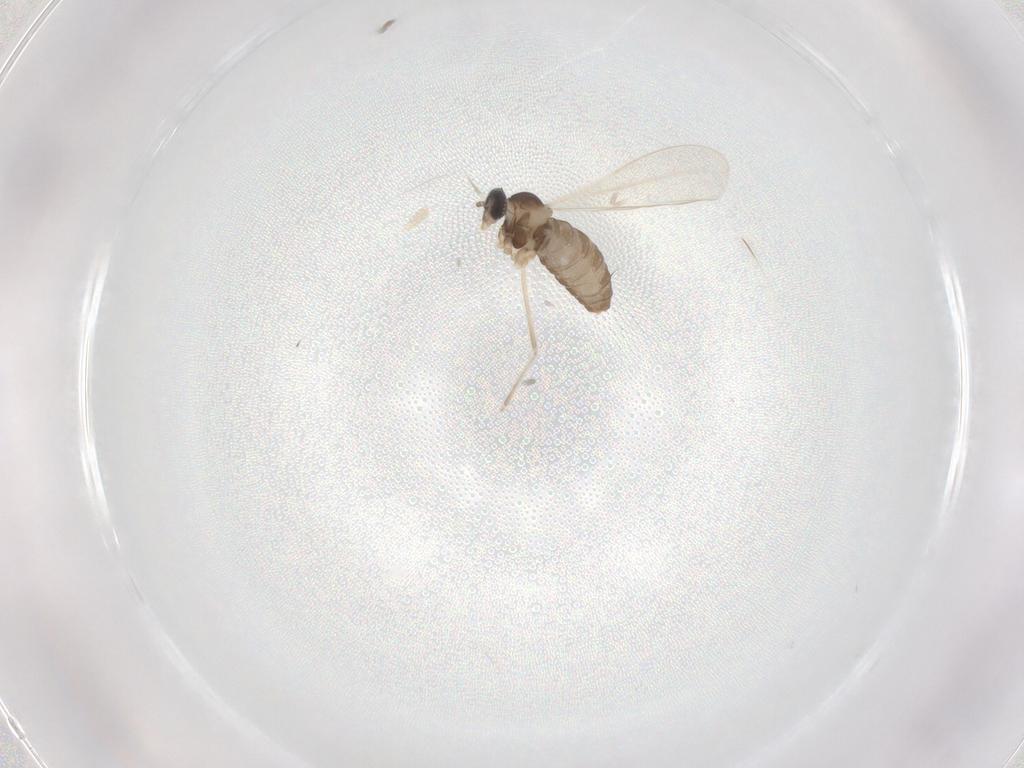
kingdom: Animalia
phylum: Arthropoda
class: Insecta
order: Diptera
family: Cecidomyiidae
